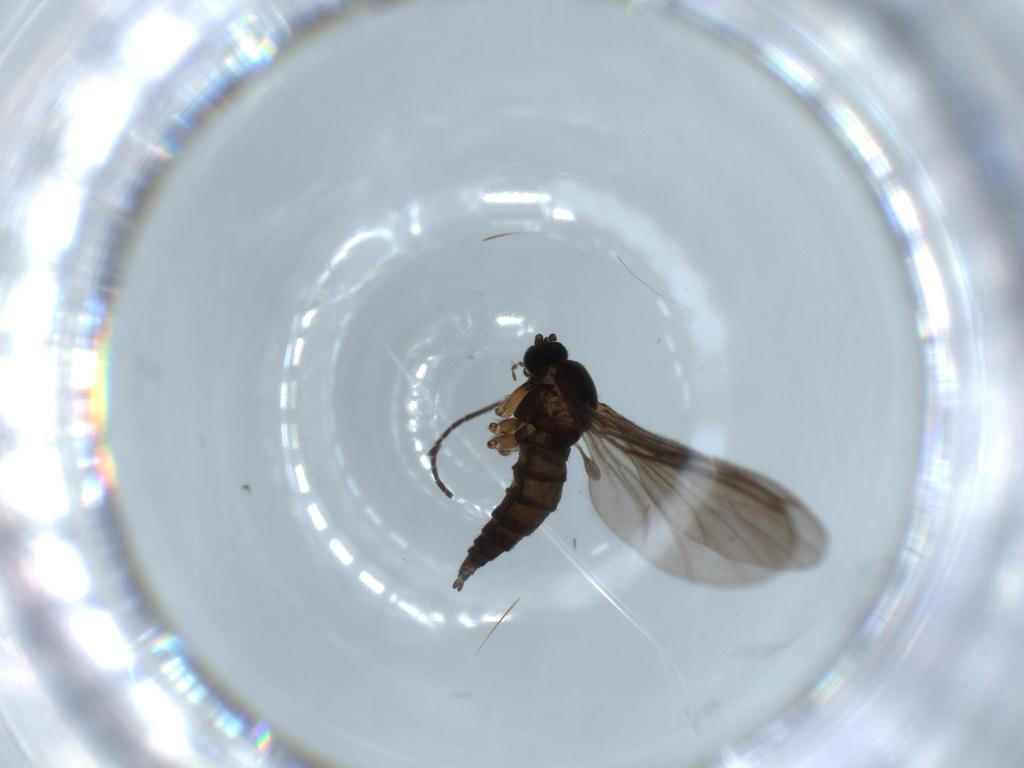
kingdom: Animalia
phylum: Arthropoda
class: Insecta
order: Diptera
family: Sciaridae
